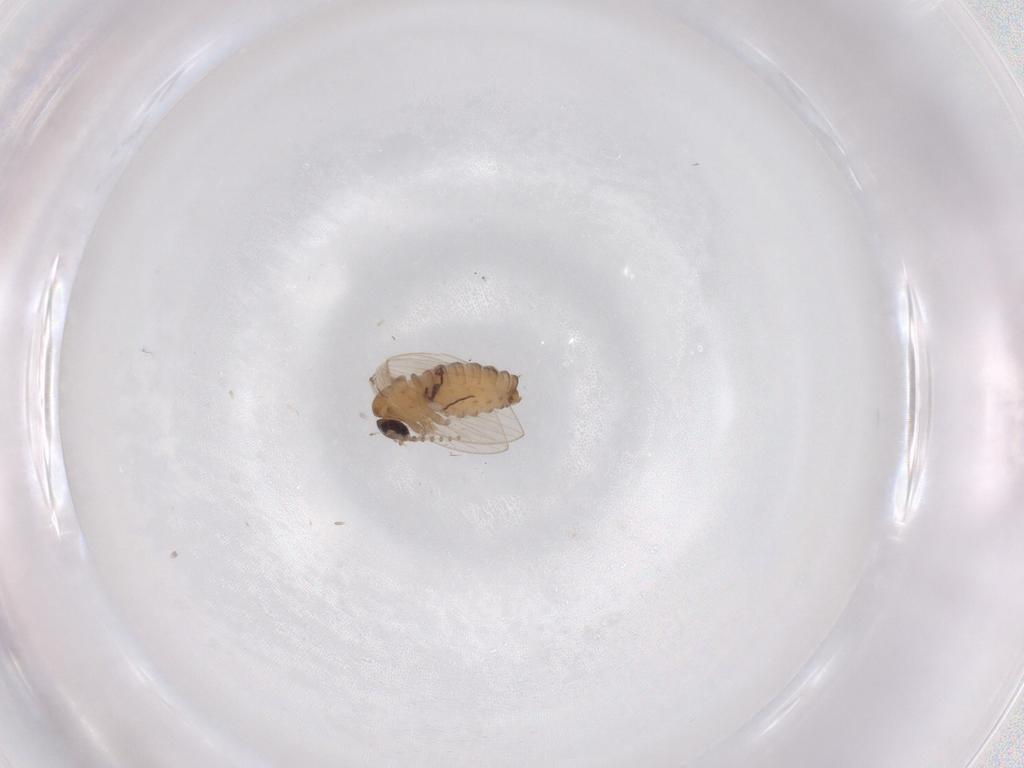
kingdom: Animalia
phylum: Arthropoda
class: Insecta
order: Diptera
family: Psychodidae
